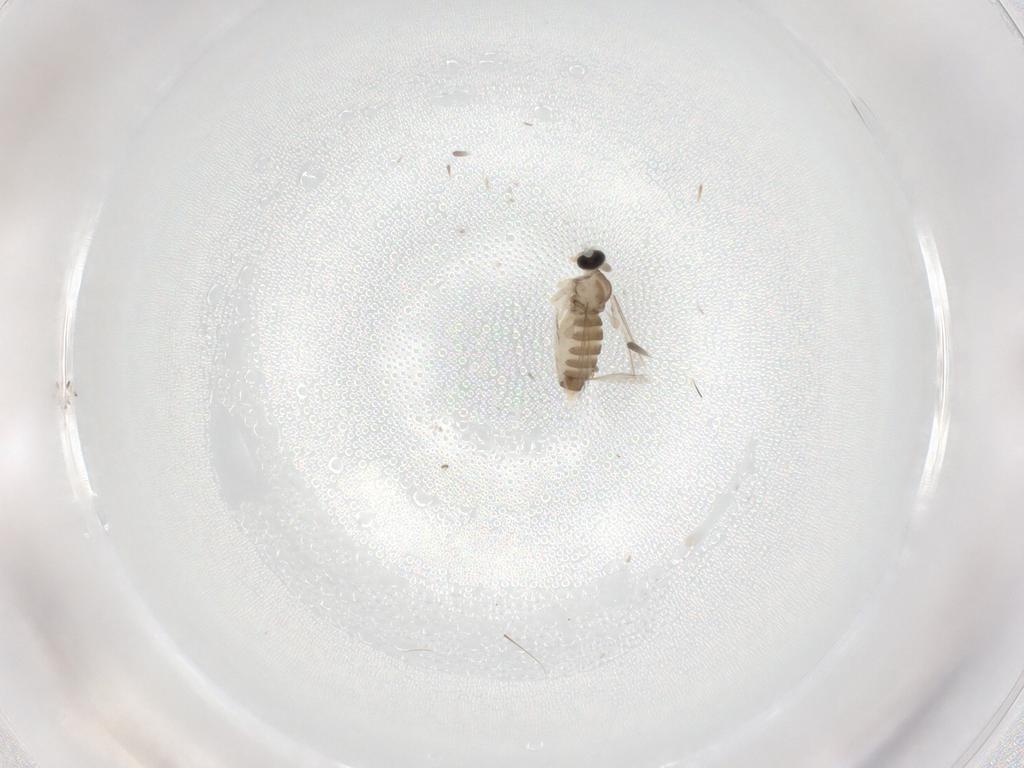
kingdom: Animalia
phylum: Arthropoda
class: Insecta
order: Diptera
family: Cecidomyiidae
